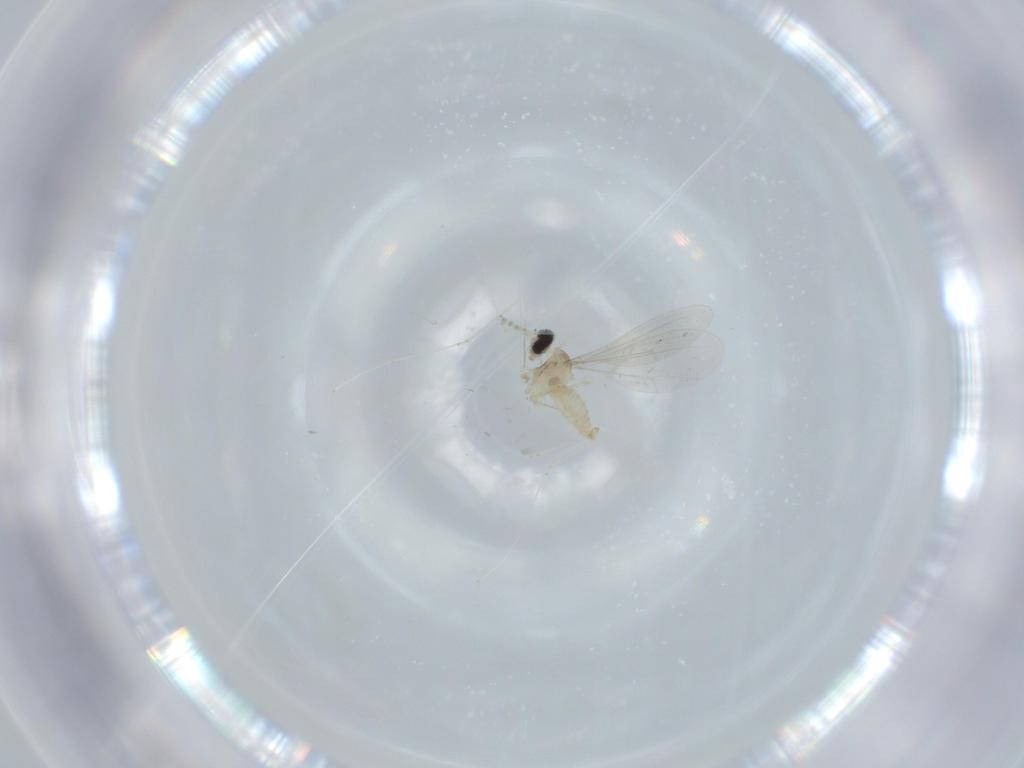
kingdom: Animalia
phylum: Arthropoda
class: Insecta
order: Diptera
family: Cecidomyiidae
